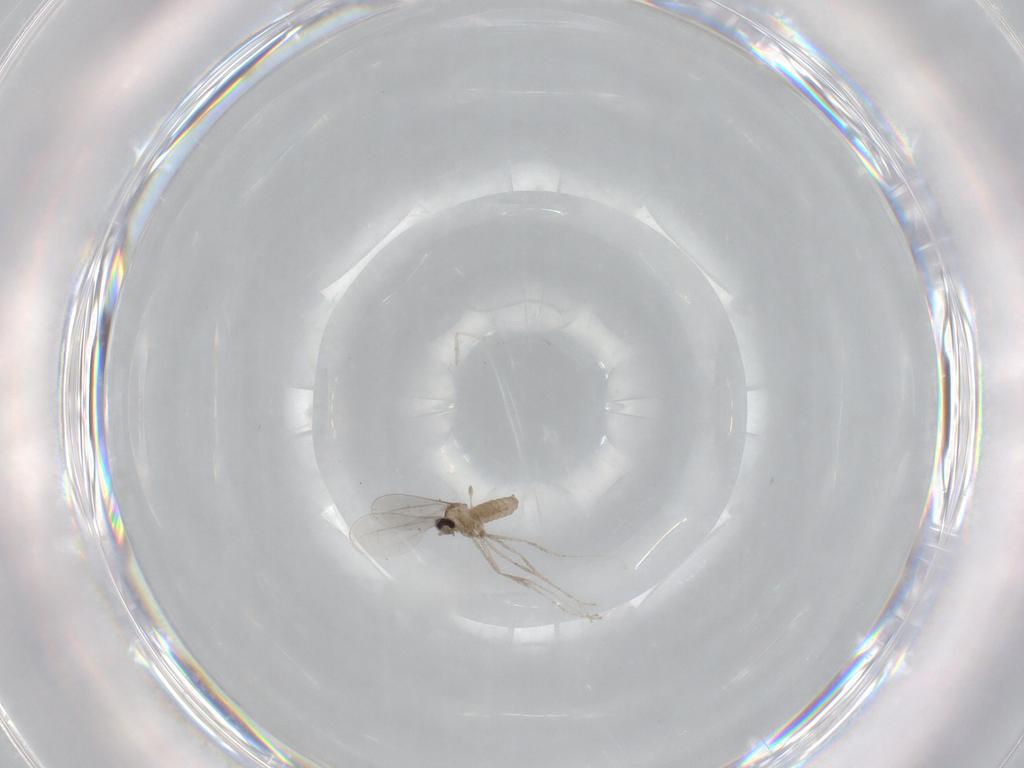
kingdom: Animalia
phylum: Arthropoda
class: Insecta
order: Diptera
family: Cecidomyiidae
